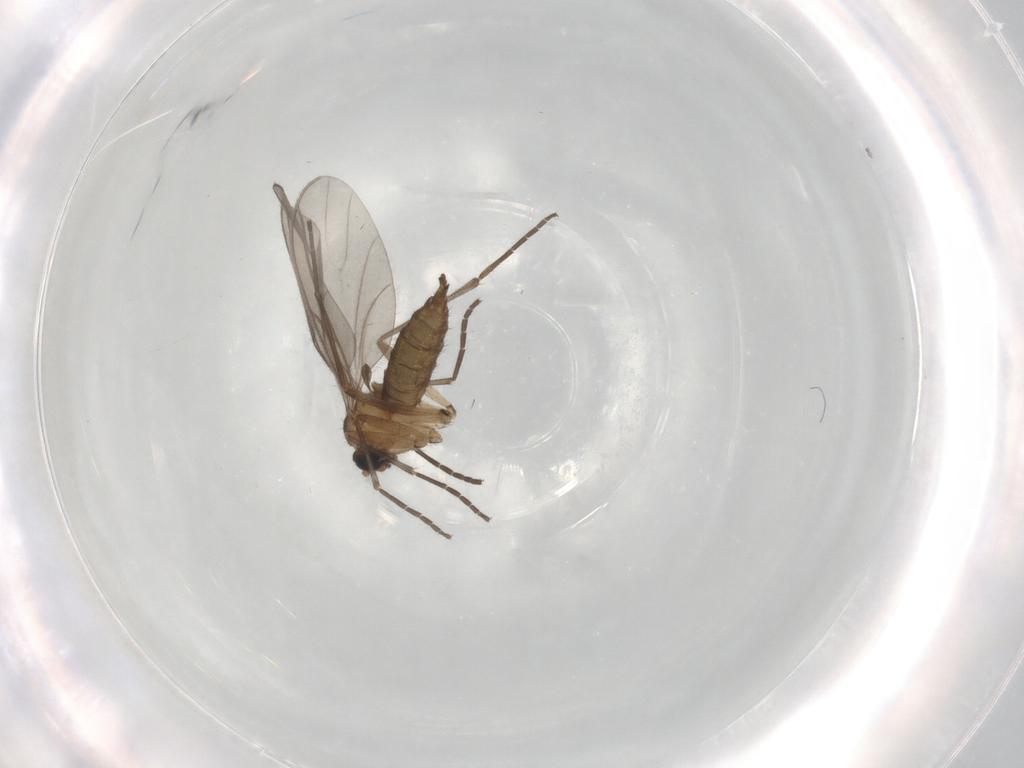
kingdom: Animalia
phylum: Arthropoda
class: Insecta
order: Diptera
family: Sciaridae
